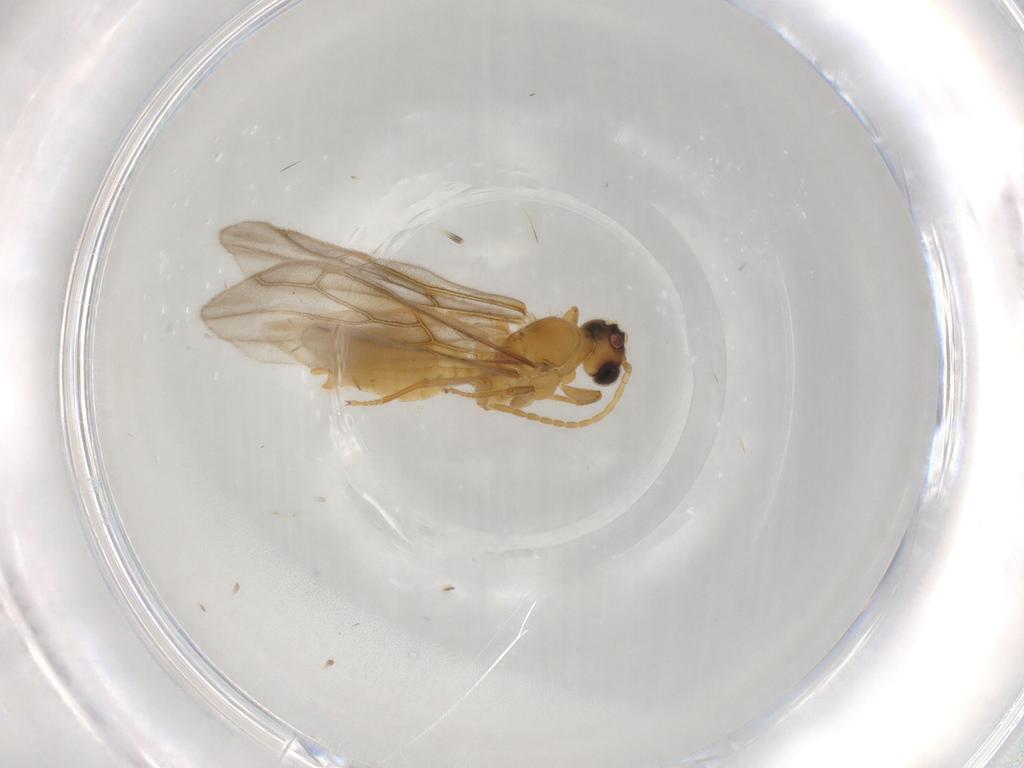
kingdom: Animalia
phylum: Arthropoda
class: Insecta
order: Hymenoptera
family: Formicidae
